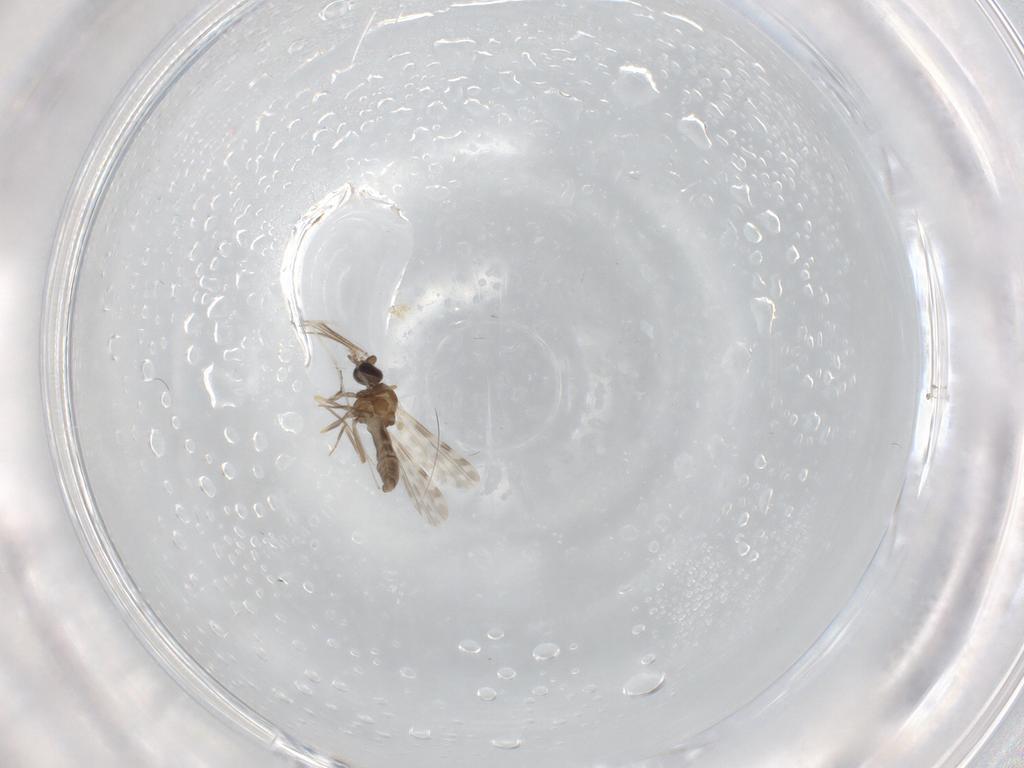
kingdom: Animalia
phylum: Arthropoda
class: Insecta
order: Diptera
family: Ceratopogonidae
